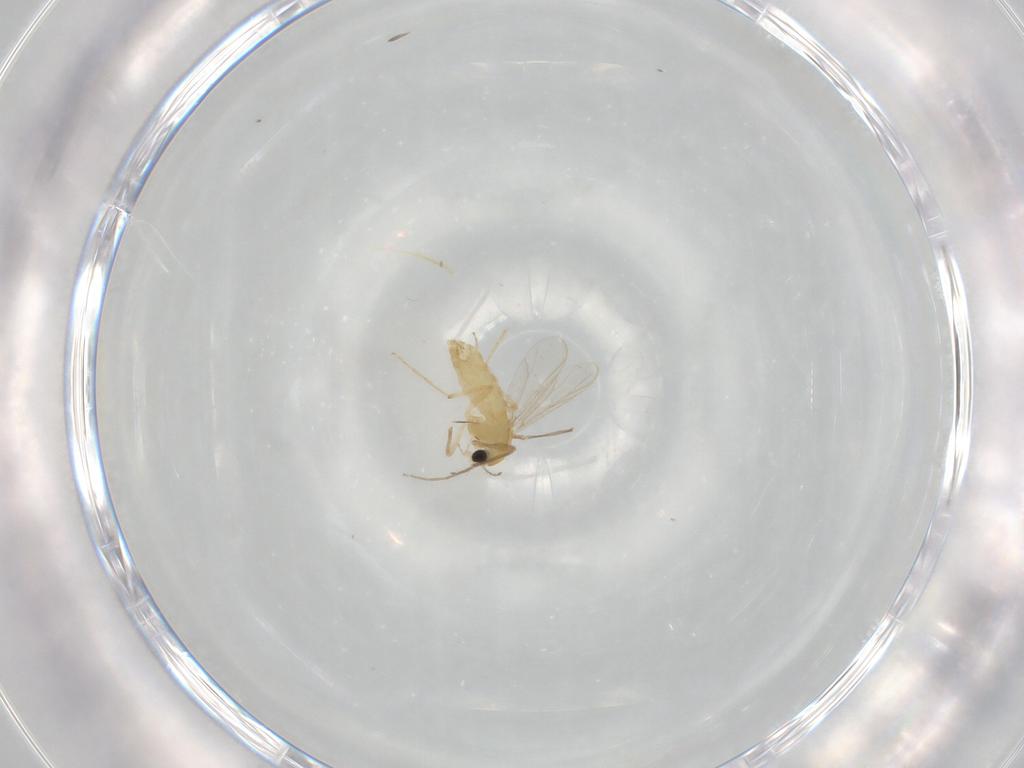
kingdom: Animalia
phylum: Arthropoda
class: Insecta
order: Diptera
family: Chironomidae
